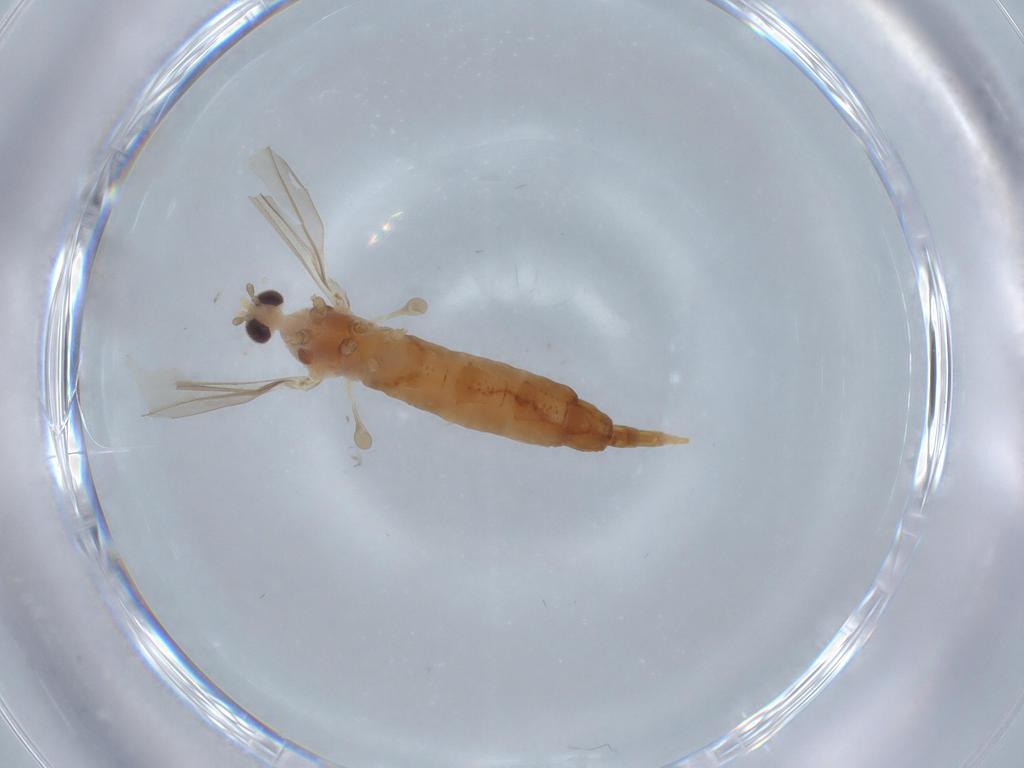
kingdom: Animalia
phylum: Arthropoda
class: Insecta
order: Diptera
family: Cecidomyiidae
